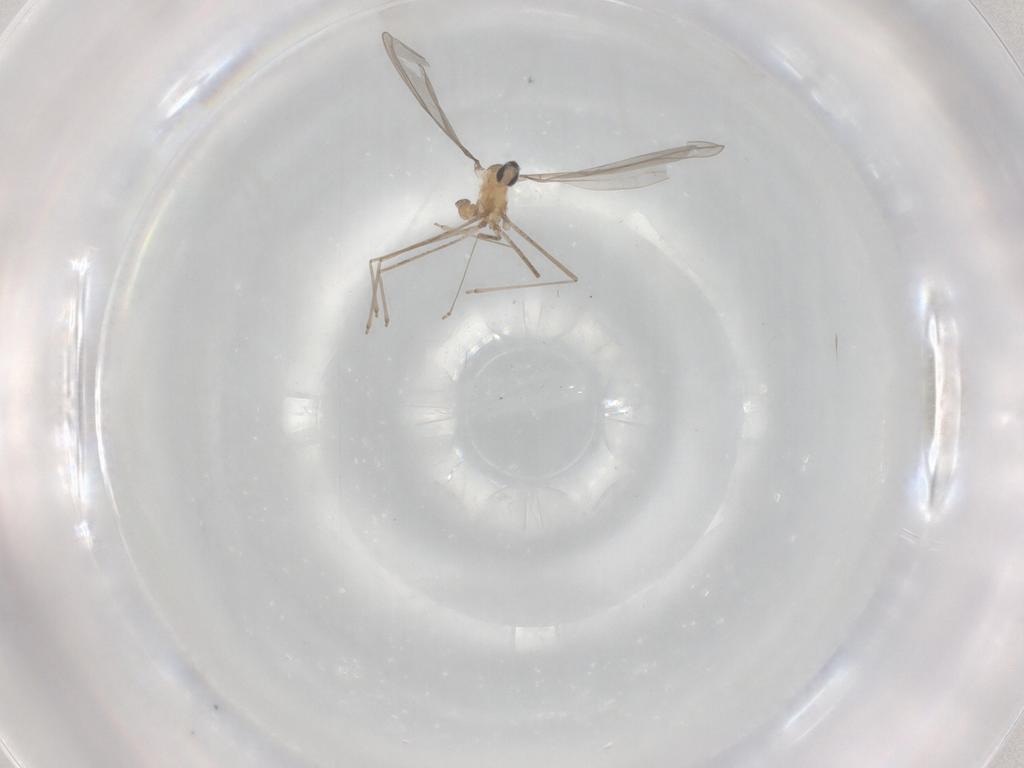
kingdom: Animalia
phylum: Arthropoda
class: Insecta
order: Diptera
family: Cecidomyiidae
